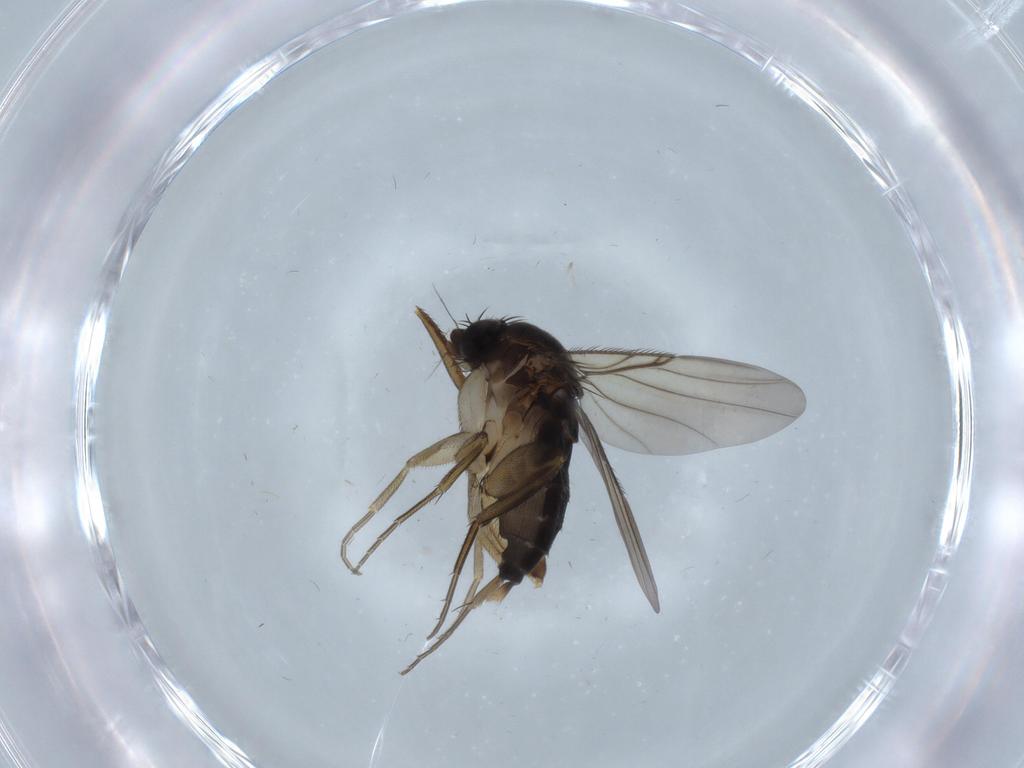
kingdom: Animalia
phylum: Arthropoda
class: Insecta
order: Diptera
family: Phoridae
